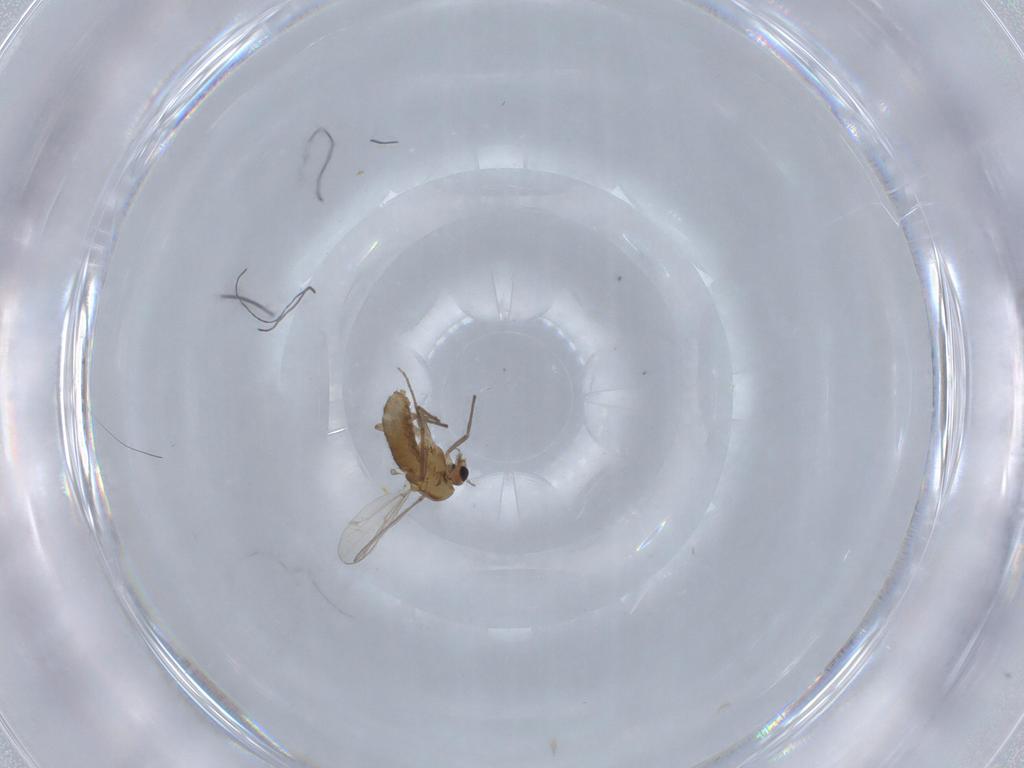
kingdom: Animalia
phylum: Arthropoda
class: Insecta
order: Diptera
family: Chironomidae
